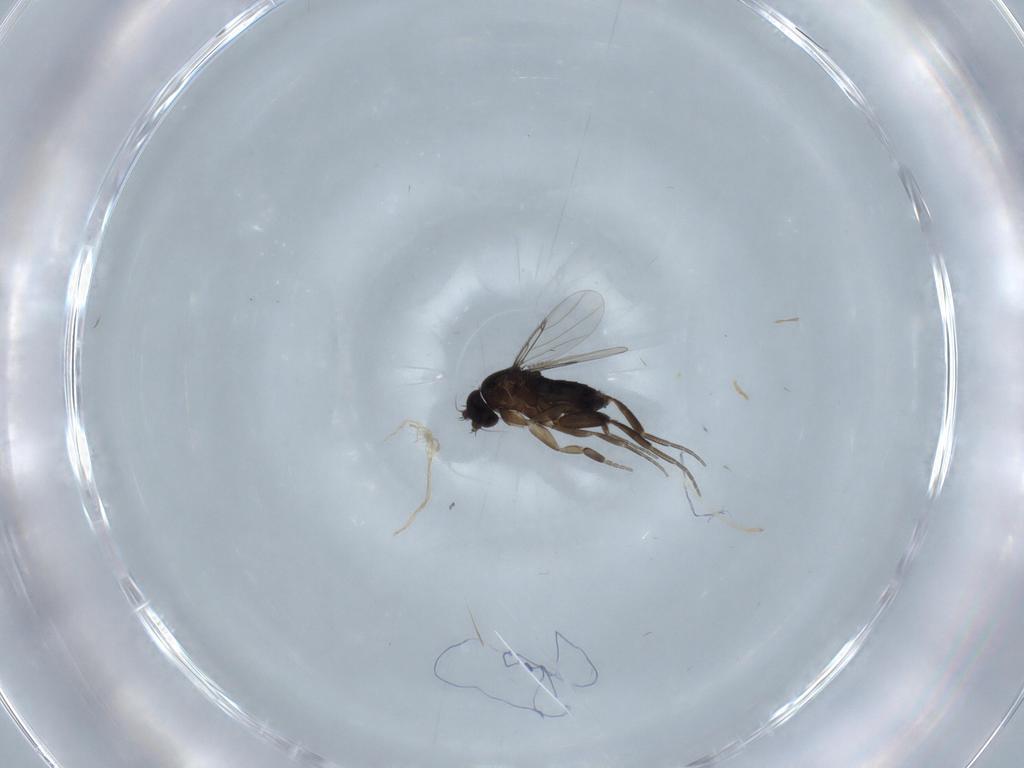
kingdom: Animalia
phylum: Arthropoda
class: Insecta
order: Diptera
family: Phoridae
